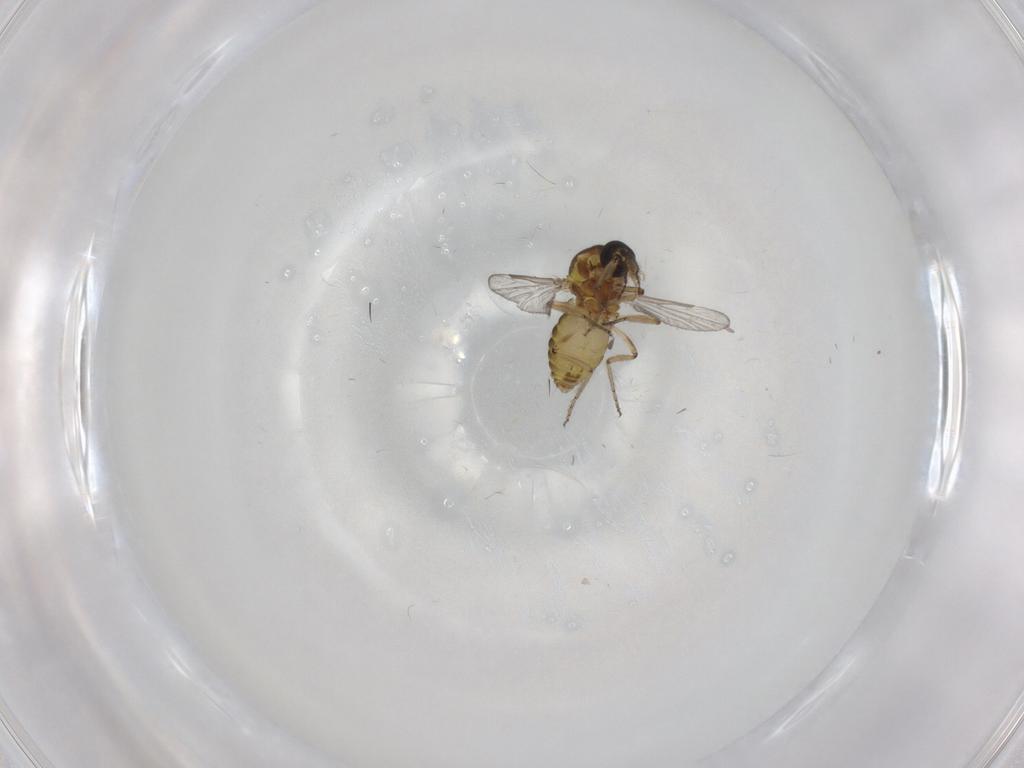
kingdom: Animalia
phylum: Arthropoda
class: Insecta
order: Diptera
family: Ceratopogonidae
